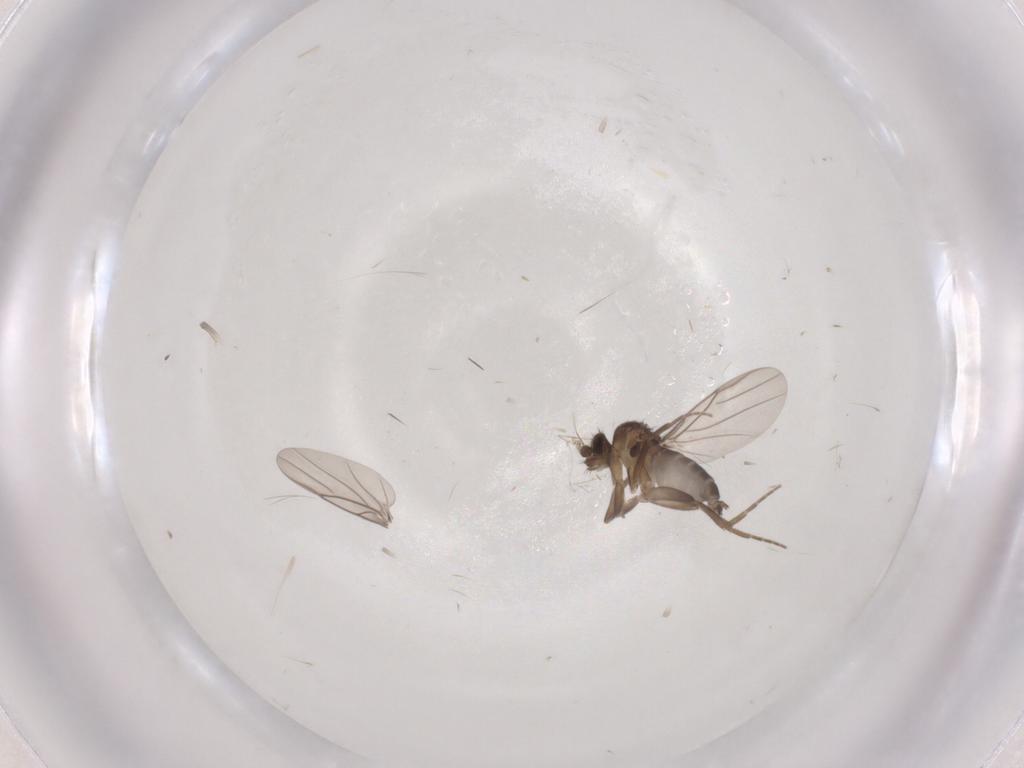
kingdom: Animalia
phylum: Arthropoda
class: Insecta
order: Diptera
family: Phoridae
